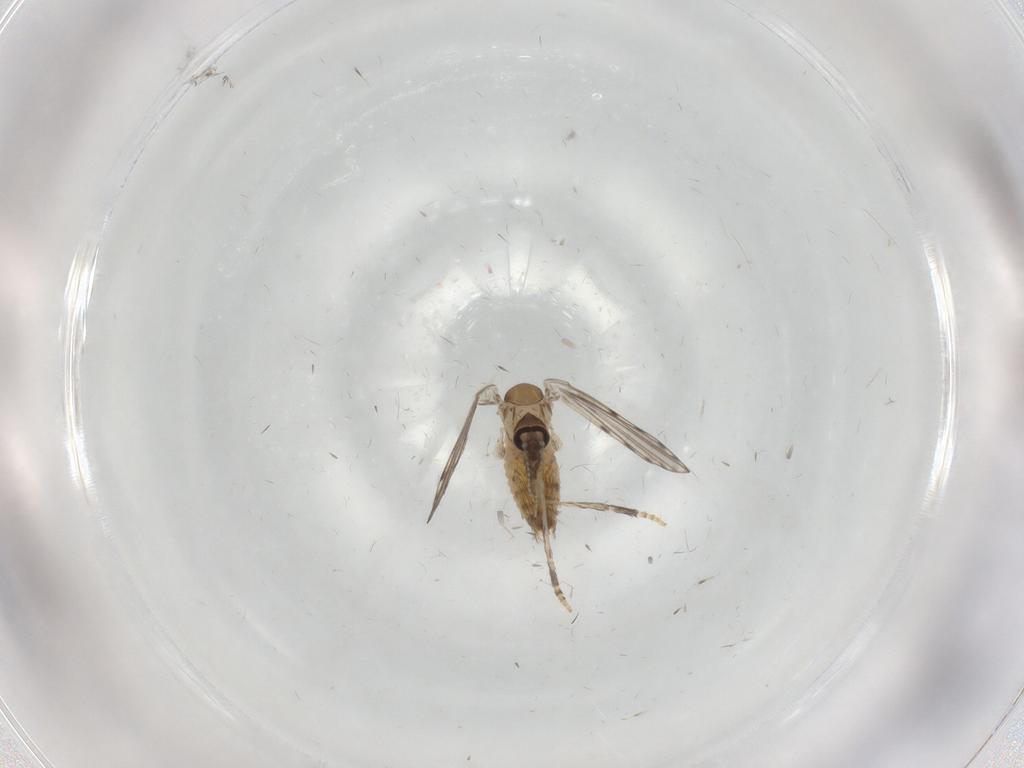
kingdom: Animalia
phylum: Arthropoda
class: Insecta
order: Diptera
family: Psychodidae
